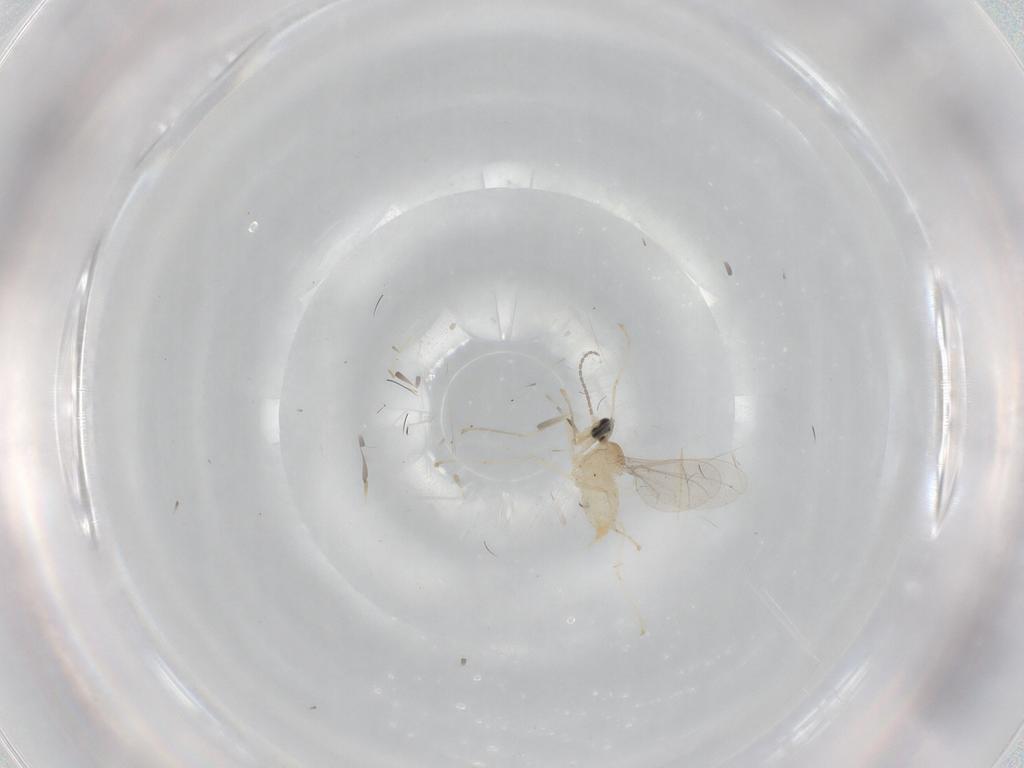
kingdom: Animalia
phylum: Arthropoda
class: Insecta
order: Diptera
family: Cecidomyiidae
